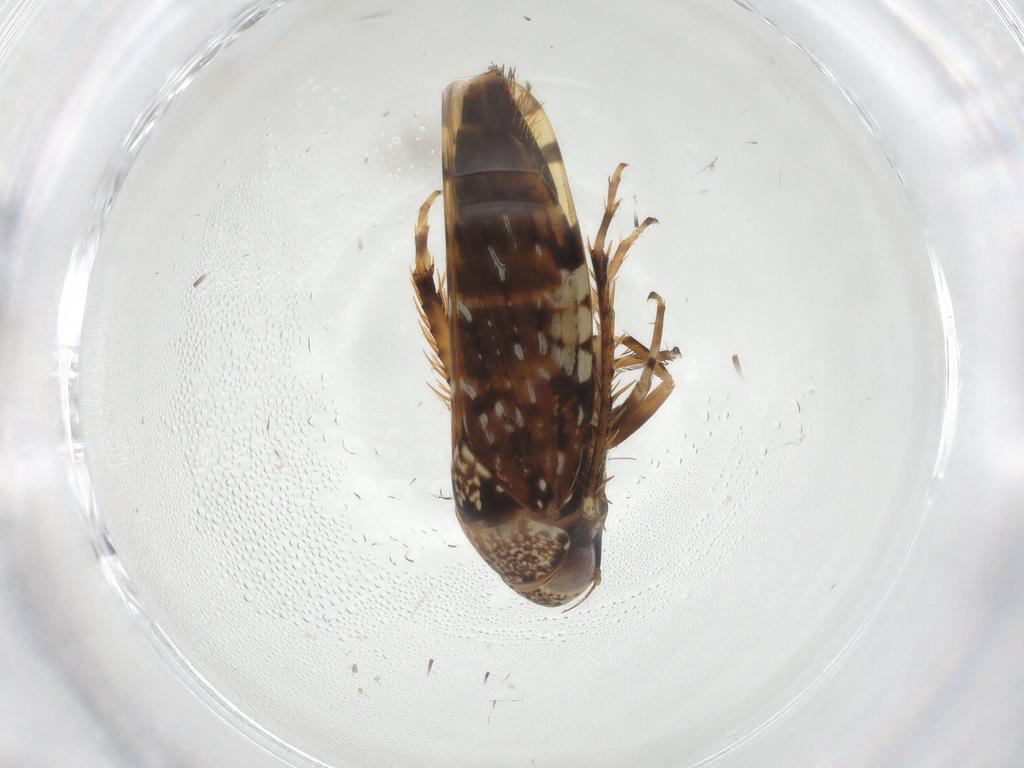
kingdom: Animalia
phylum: Arthropoda
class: Insecta
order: Hemiptera
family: Cicadellidae
